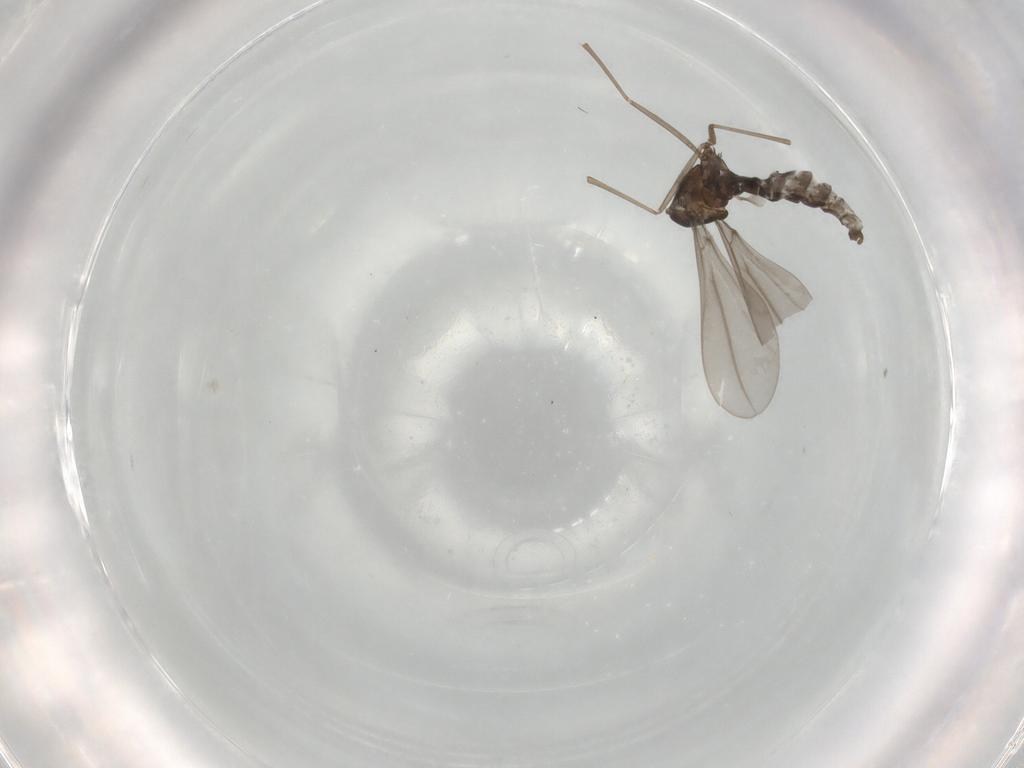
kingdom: Animalia
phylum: Arthropoda
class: Insecta
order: Diptera
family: Cecidomyiidae
